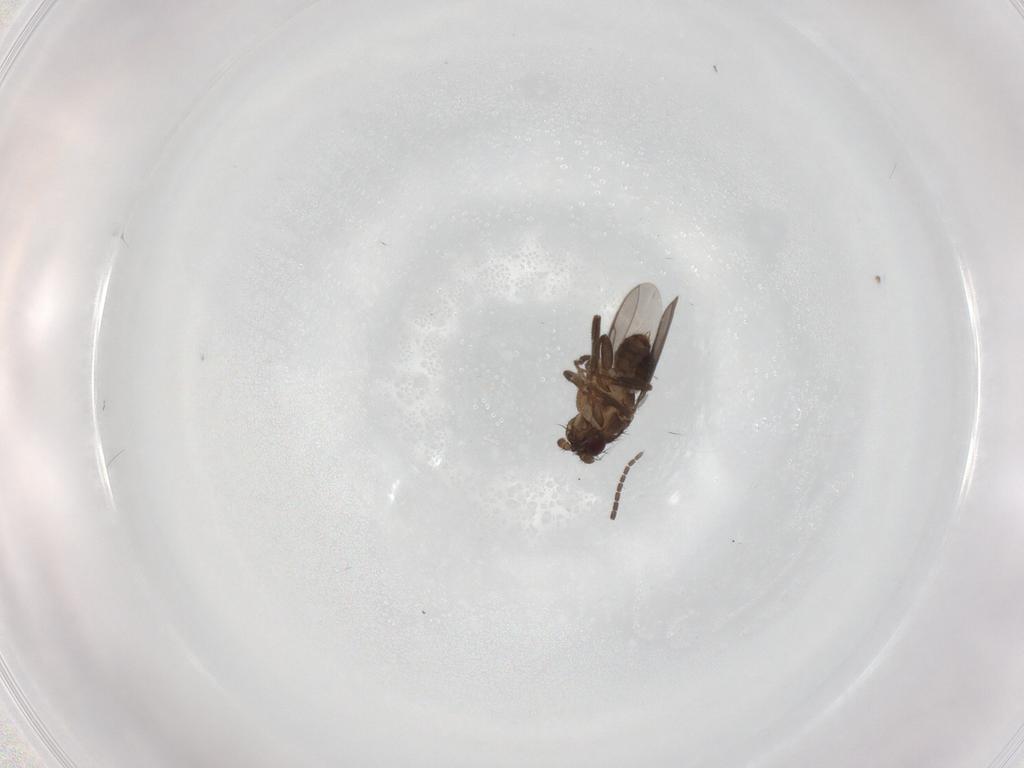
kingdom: Animalia
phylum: Arthropoda
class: Insecta
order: Diptera
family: Sphaeroceridae
